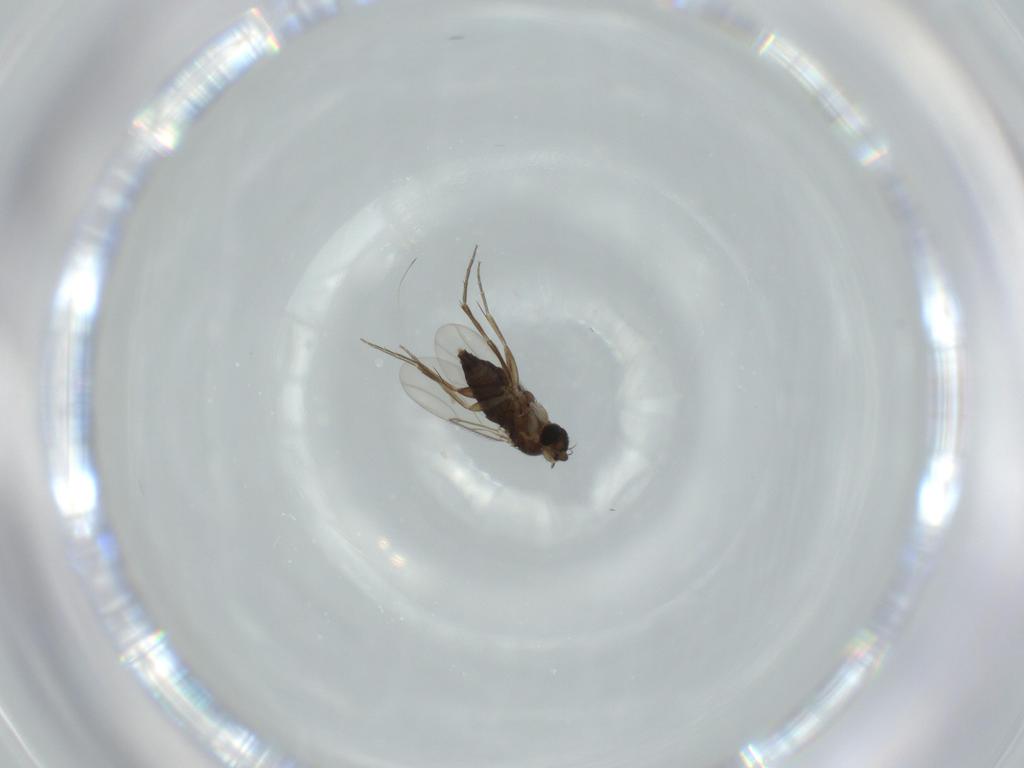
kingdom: Animalia
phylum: Arthropoda
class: Insecta
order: Diptera
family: Phoridae
